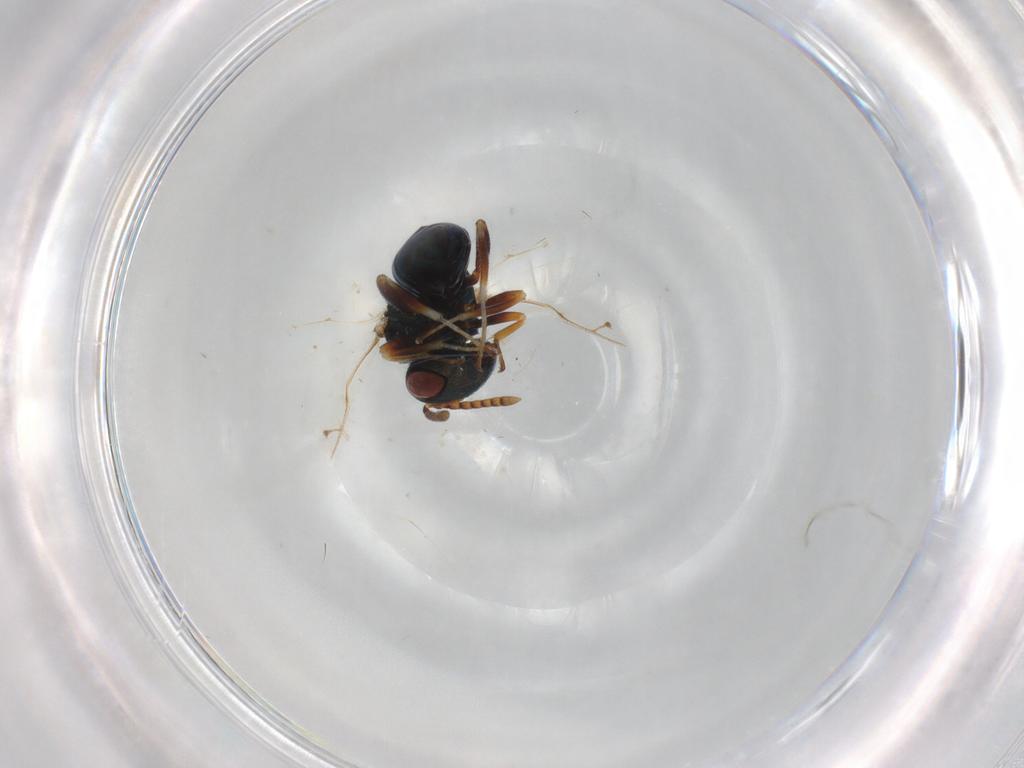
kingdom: Animalia
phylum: Arthropoda
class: Insecta
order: Hymenoptera
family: Pteromalidae
